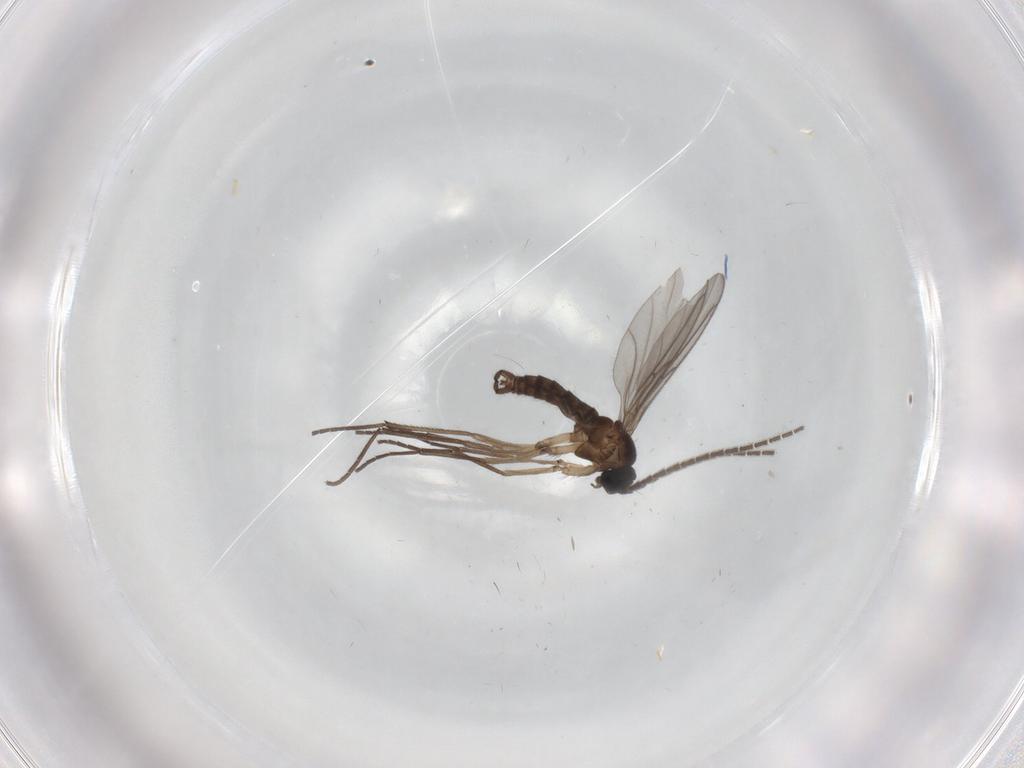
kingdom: Animalia
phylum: Arthropoda
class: Insecta
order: Diptera
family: Sciaridae
